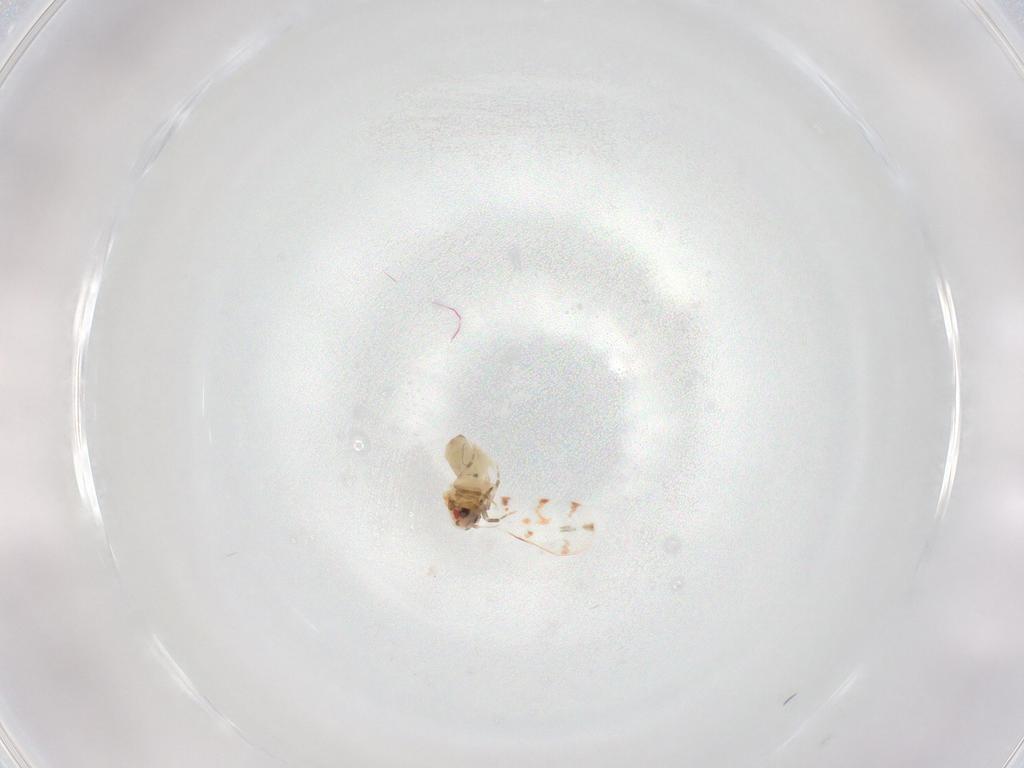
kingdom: Animalia
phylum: Arthropoda
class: Insecta
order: Hemiptera
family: Aleyrodidae
